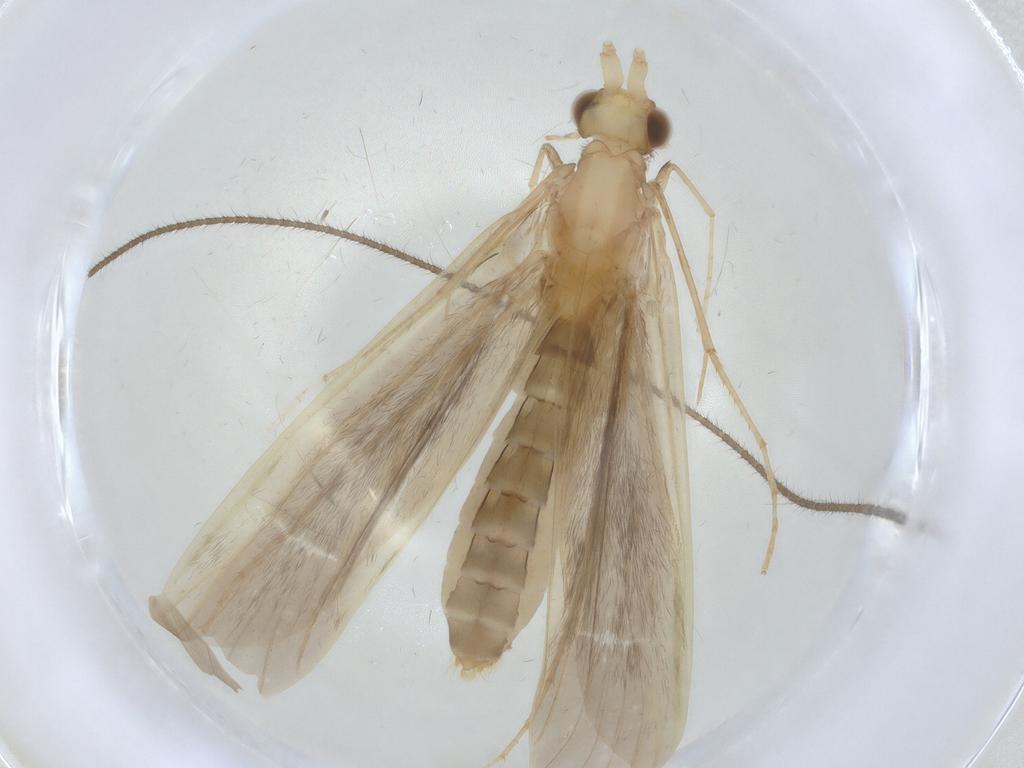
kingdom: Animalia
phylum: Arthropoda
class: Insecta
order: Trichoptera
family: Leptoceridae
